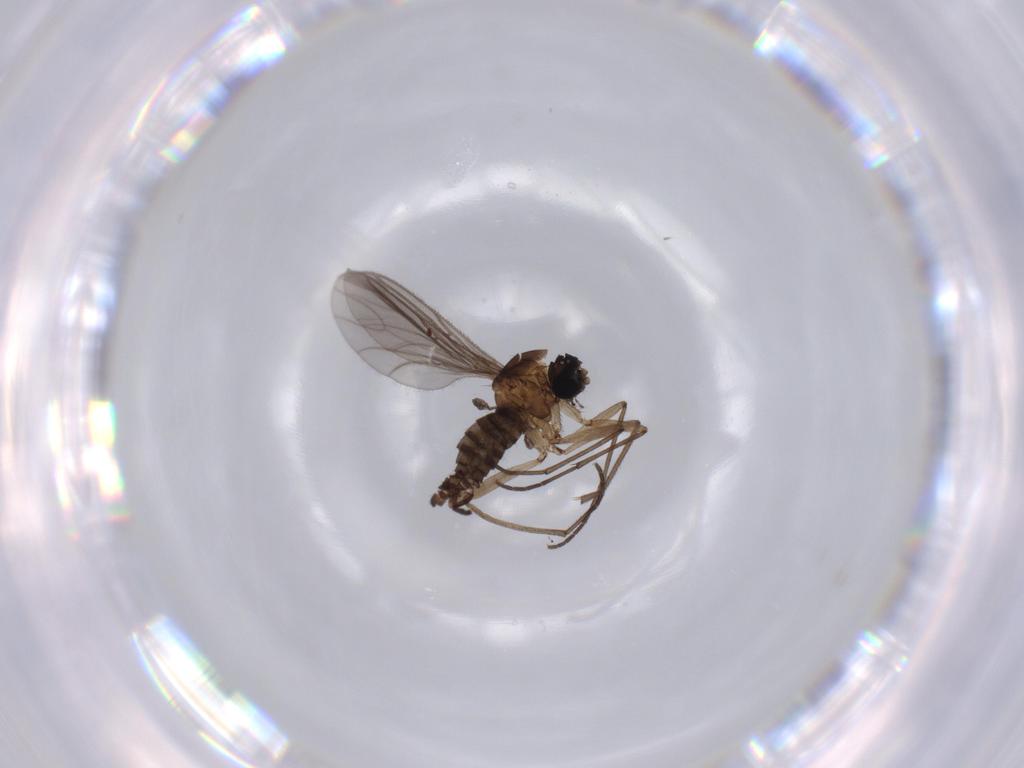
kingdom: Animalia
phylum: Arthropoda
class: Insecta
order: Diptera
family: Sciaridae
